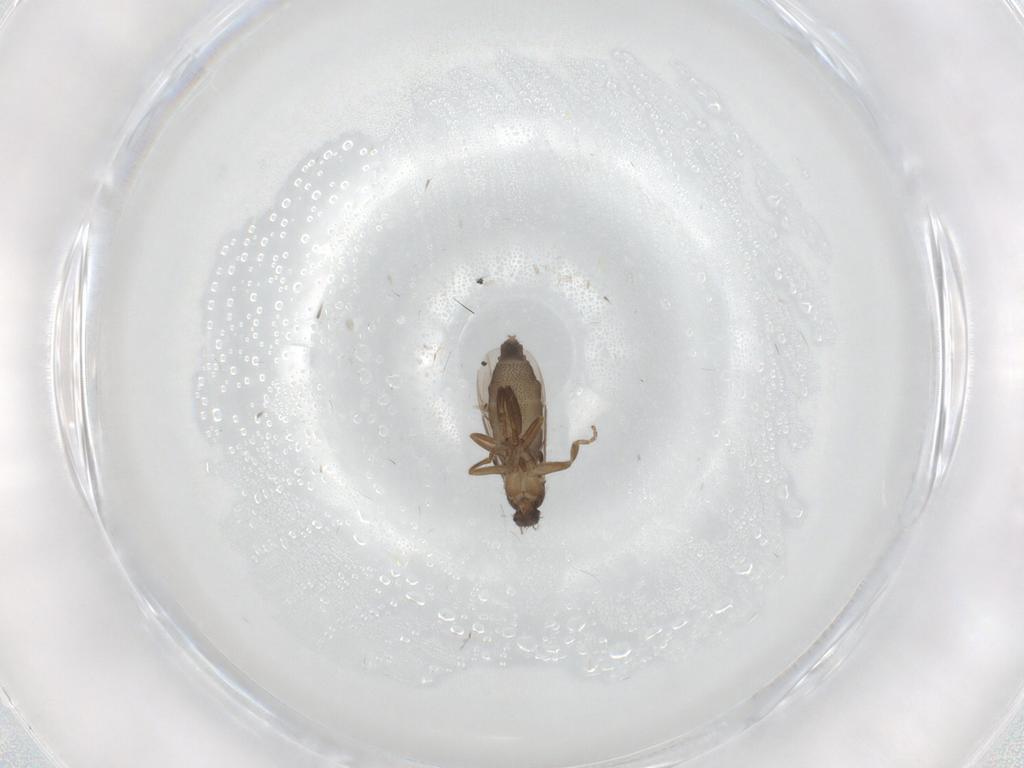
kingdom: Animalia
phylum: Arthropoda
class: Insecta
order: Diptera
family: Phoridae
